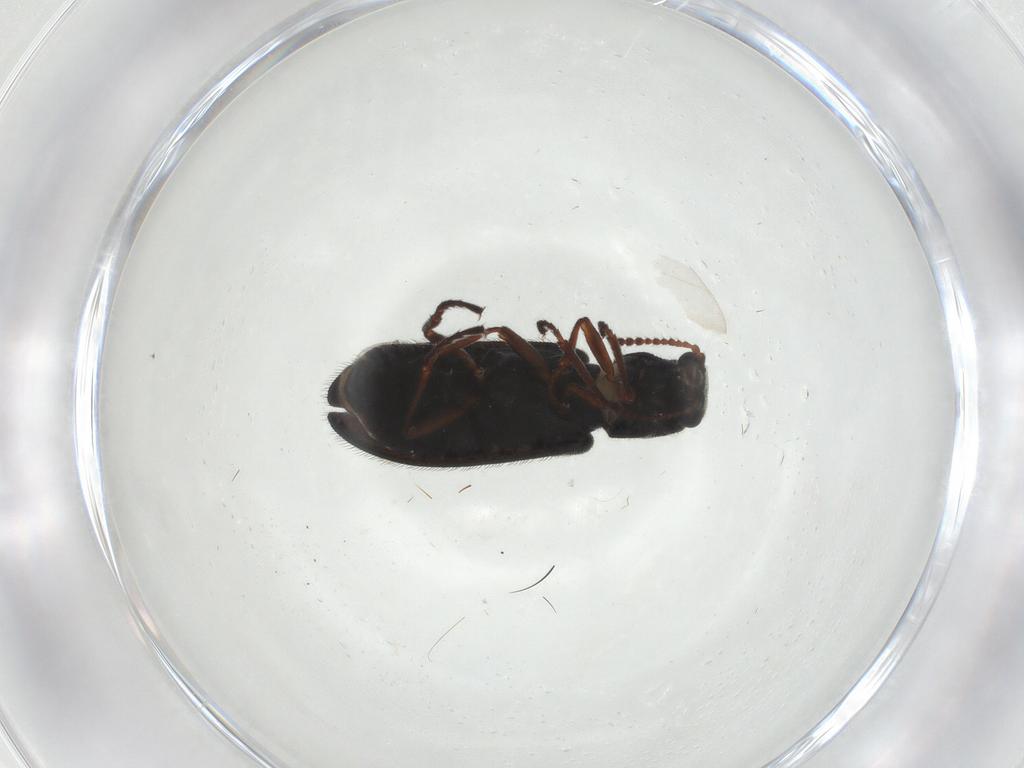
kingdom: Animalia
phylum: Arthropoda
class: Insecta
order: Coleoptera
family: Melyridae
